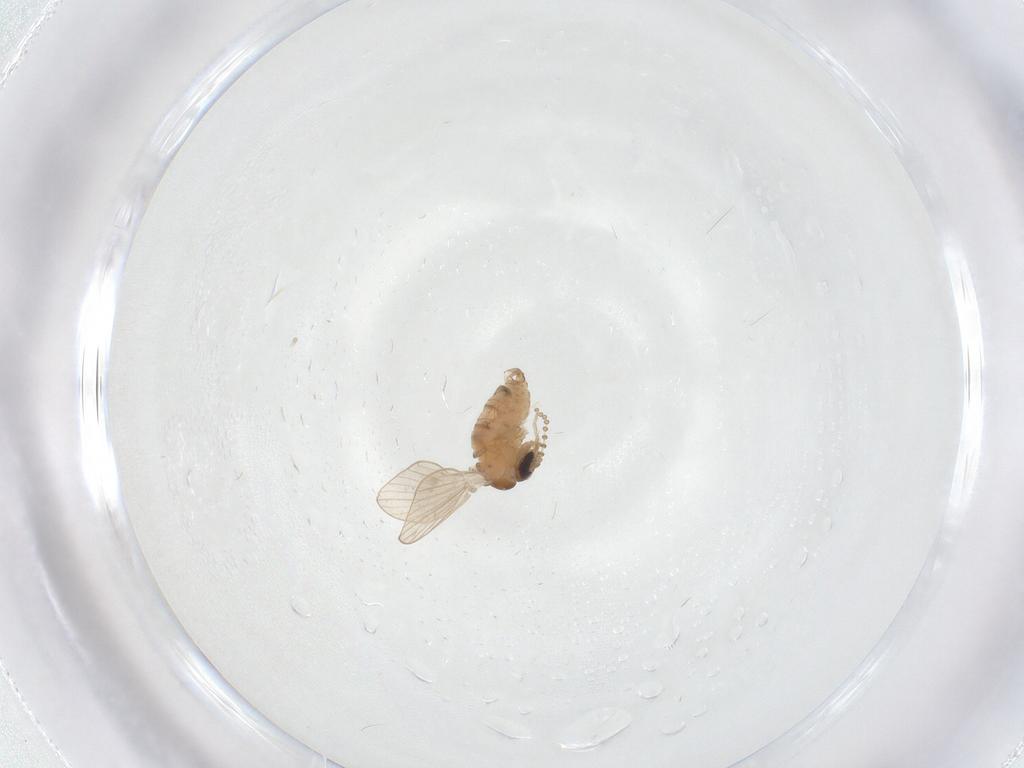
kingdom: Animalia
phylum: Arthropoda
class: Insecta
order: Diptera
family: Psychodidae
